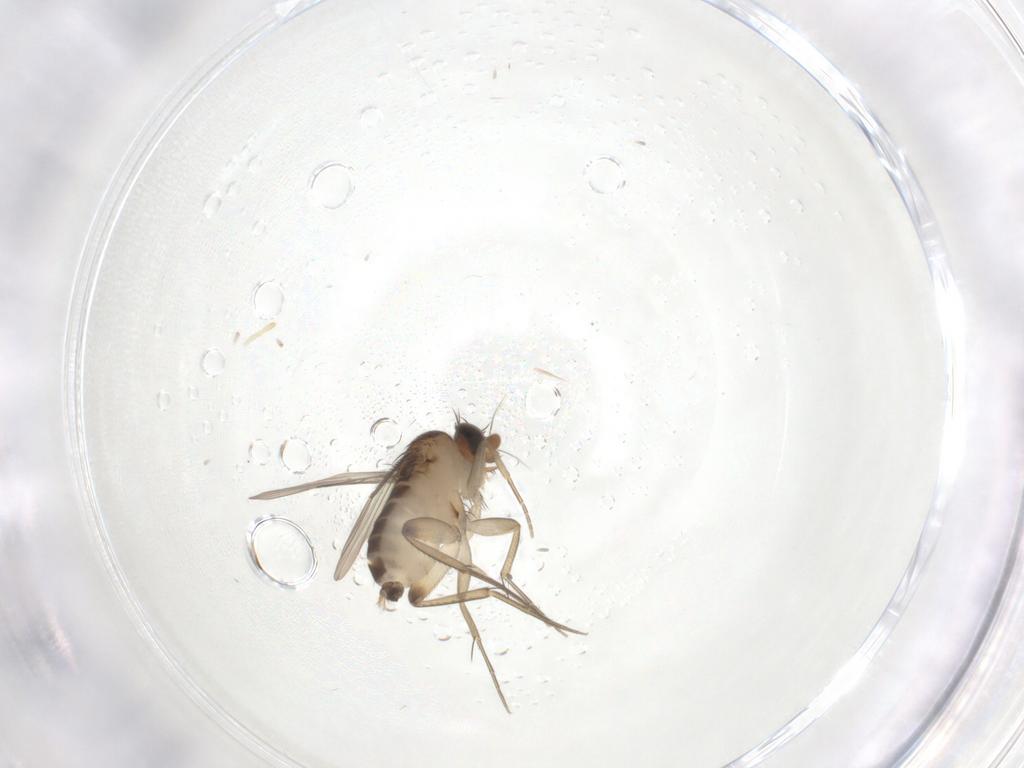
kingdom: Animalia
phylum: Arthropoda
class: Insecta
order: Diptera
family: Phoridae
